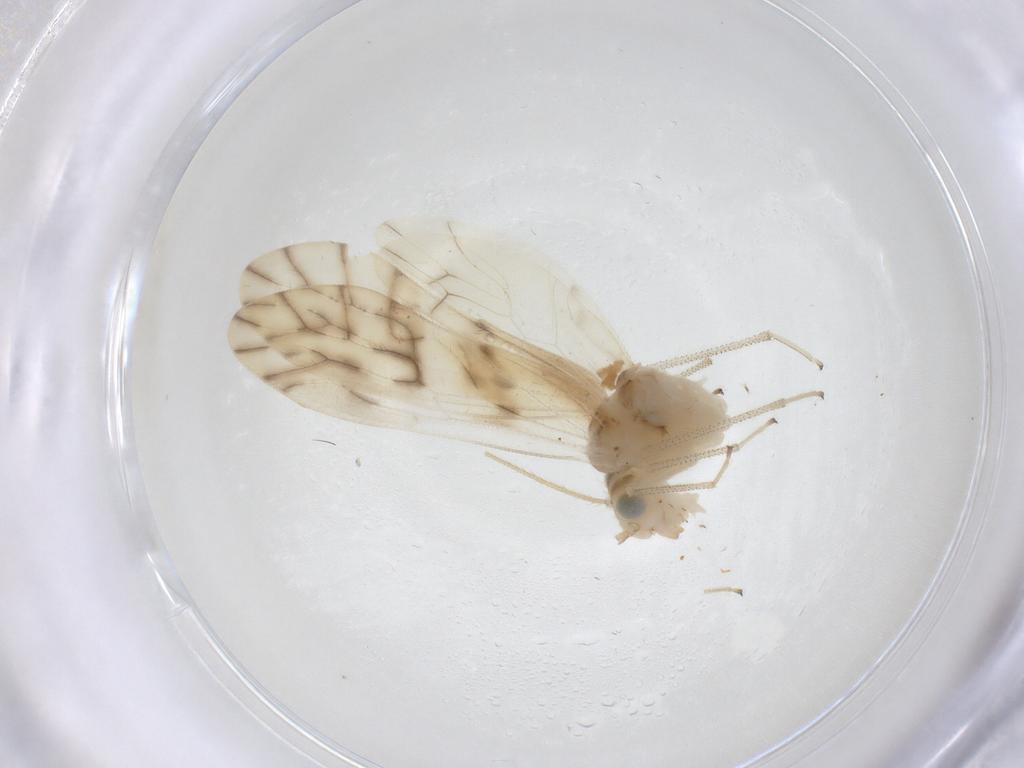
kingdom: Animalia
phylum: Arthropoda
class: Insecta
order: Psocodea
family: Caeciliusidae
